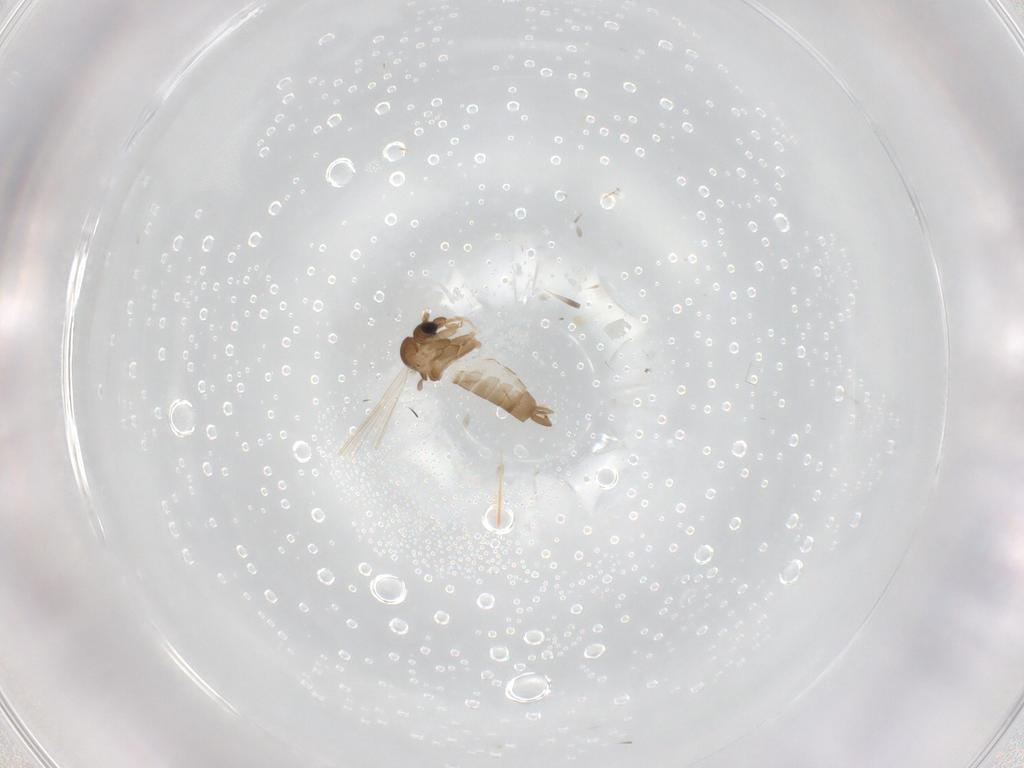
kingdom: Animalia
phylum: Arthropoda
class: Insecta
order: Diptera
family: Psychodidae
